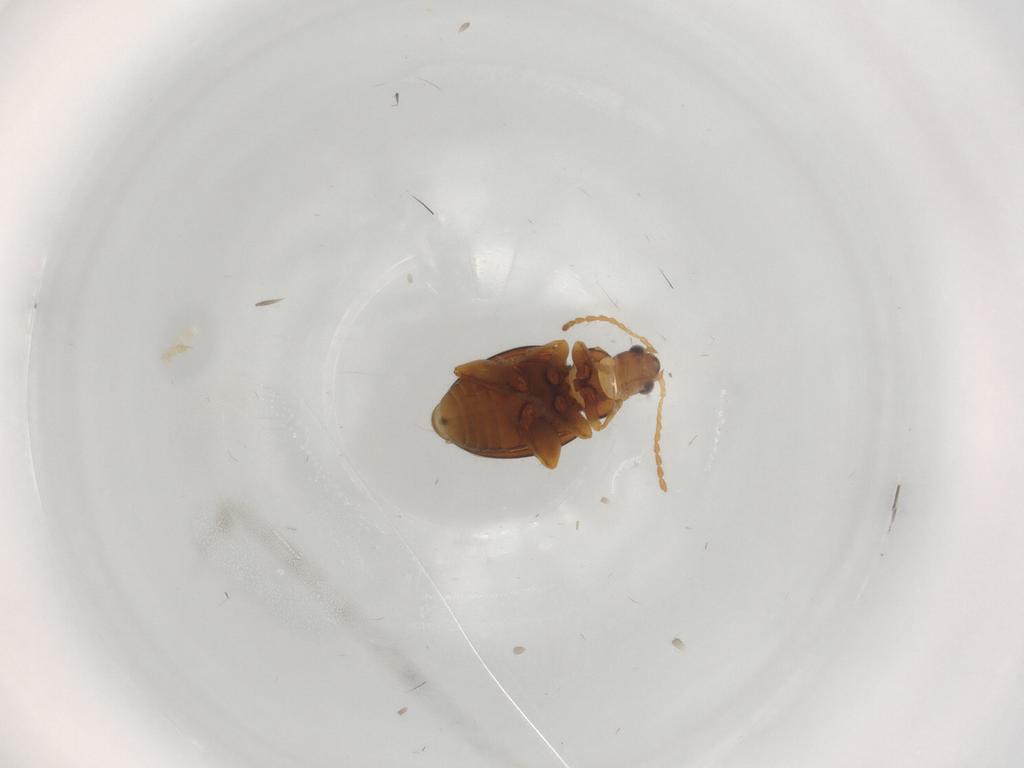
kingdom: Animalia
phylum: Arthropoda
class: Insecta
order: Coleoptera
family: Chrysomelidae
